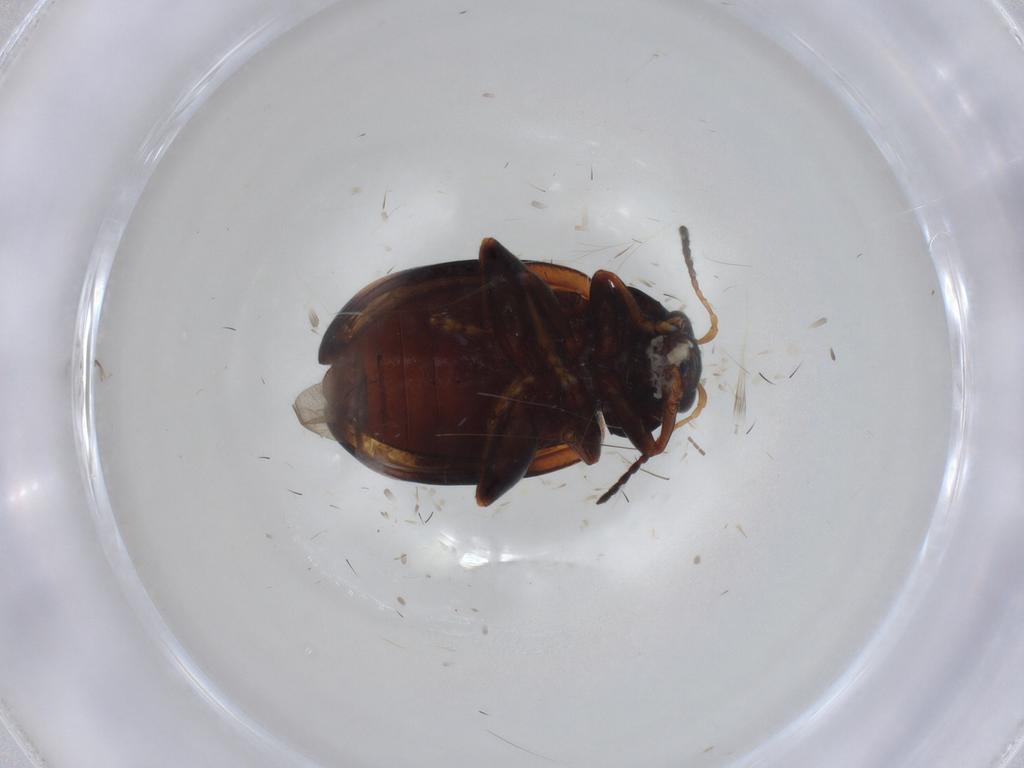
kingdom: Animalia
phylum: Arthropoda
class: Insecta
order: Coleoptera
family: Chrysomelidae
